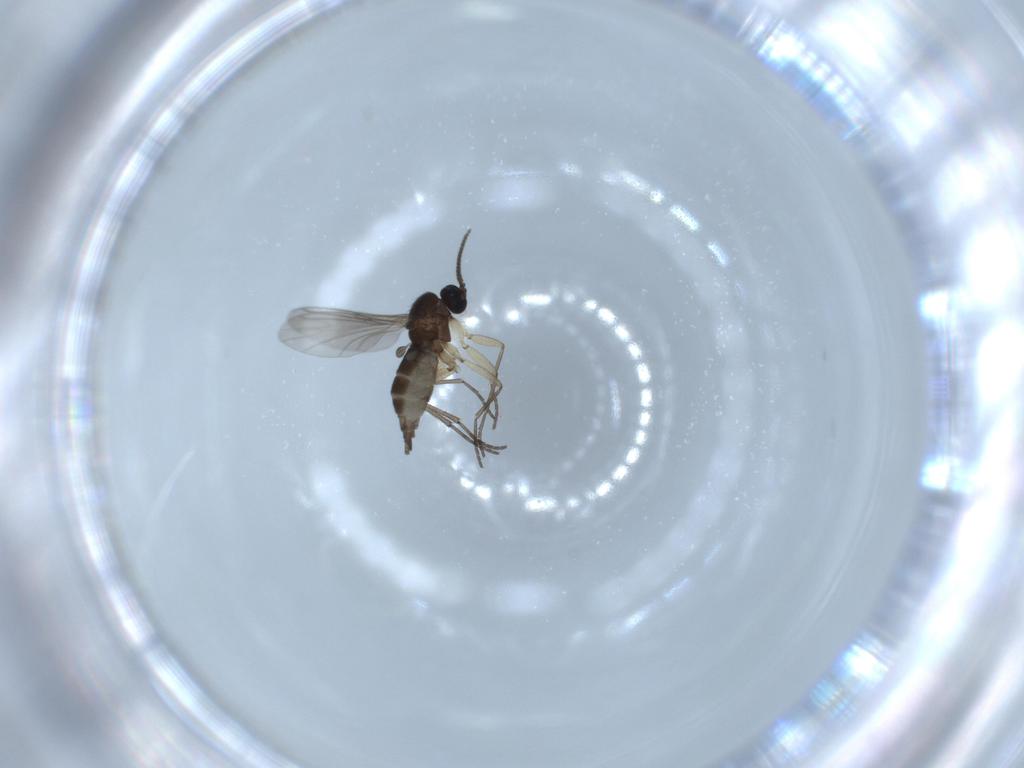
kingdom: Animalia
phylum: Arthropoda
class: Insecta
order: Diptera
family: Sciaridae
